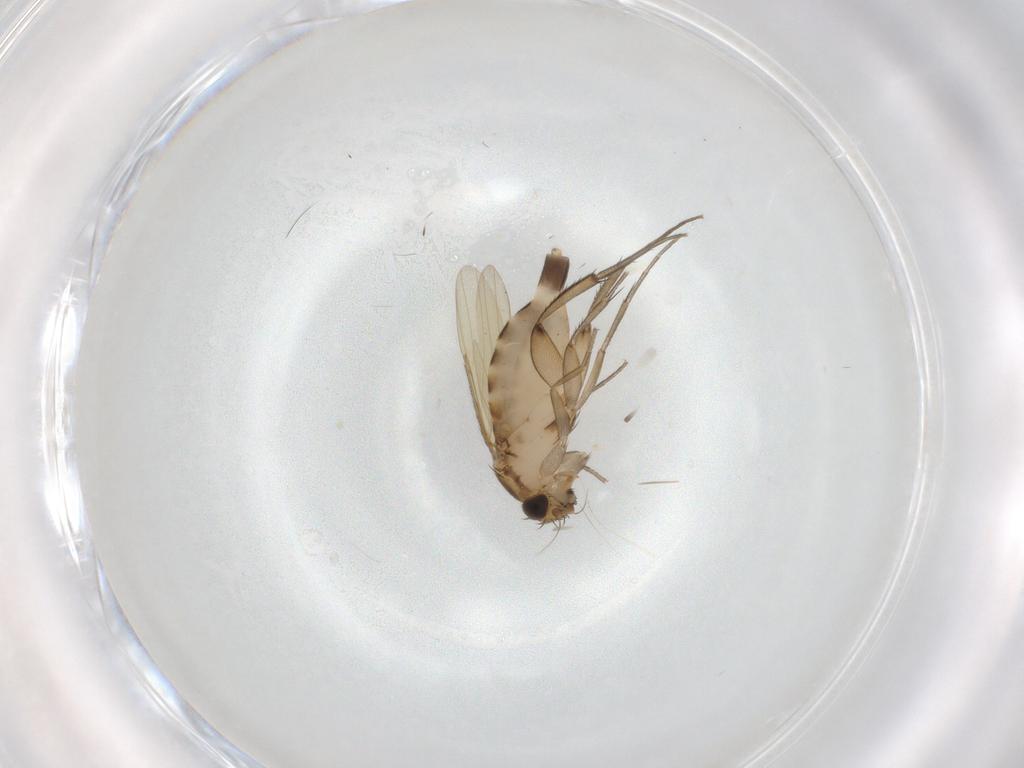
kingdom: Animalia
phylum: Arthropoda
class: Insecta
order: Diptera
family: Phoridae
